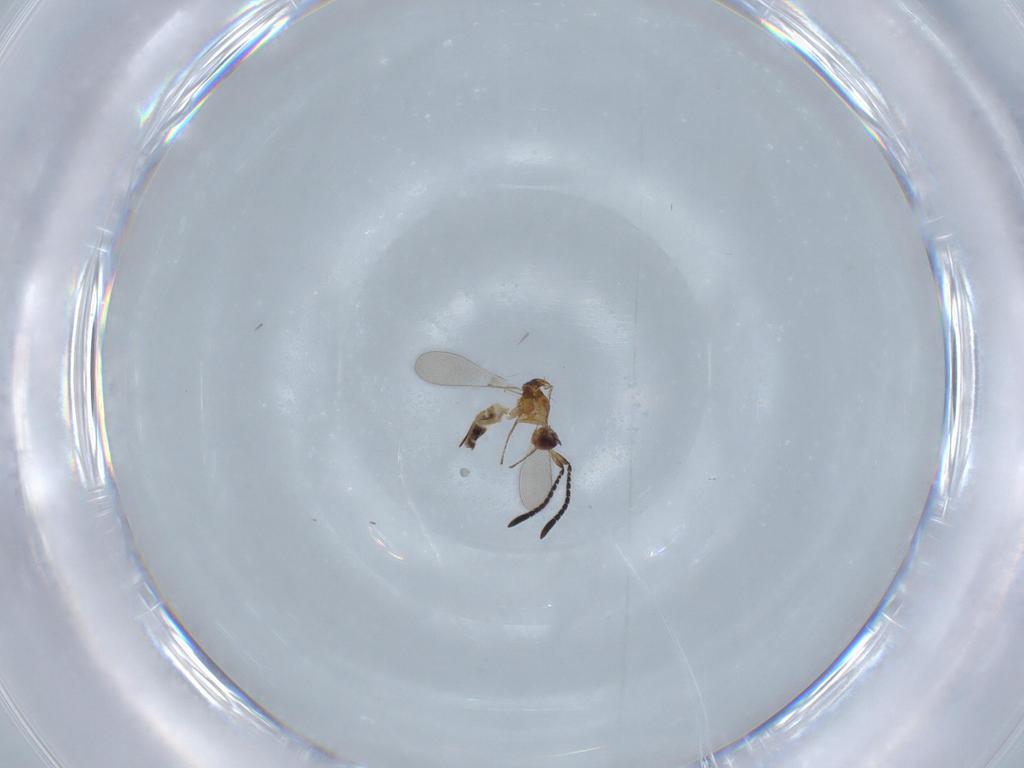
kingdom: Animalia
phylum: Arthropoda
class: Insecta
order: Hymenoptera
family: Mymaridae
